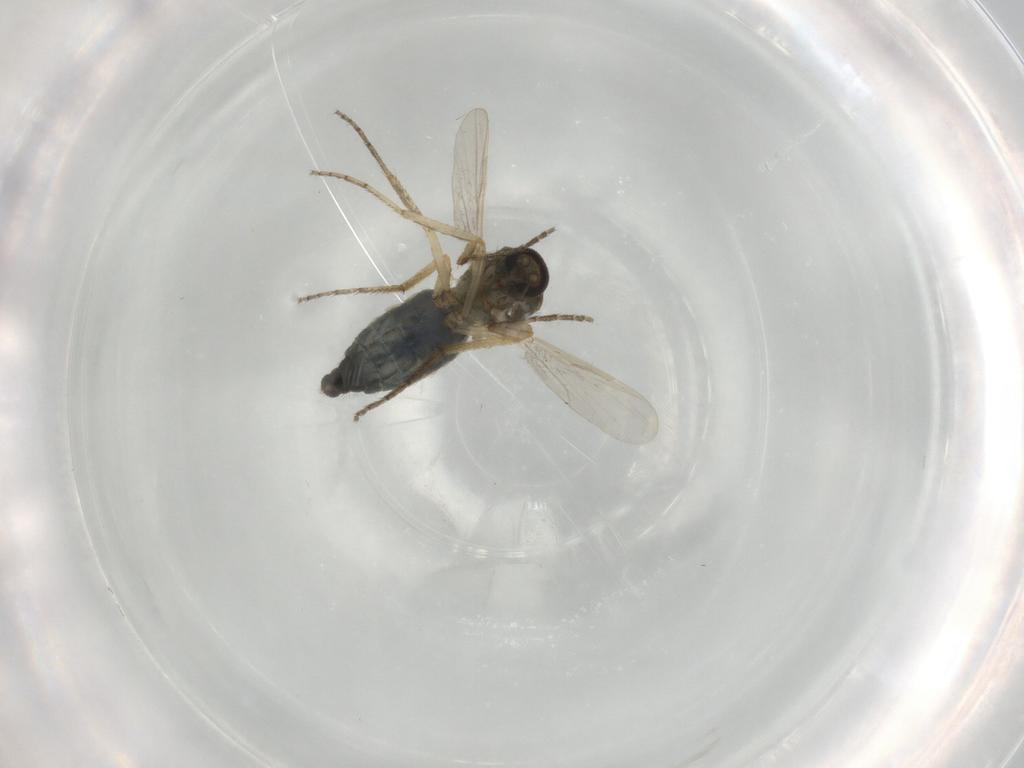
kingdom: Animalia
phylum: Arthropoda
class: Insecta
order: Diptera
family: Ceratopogonidae
